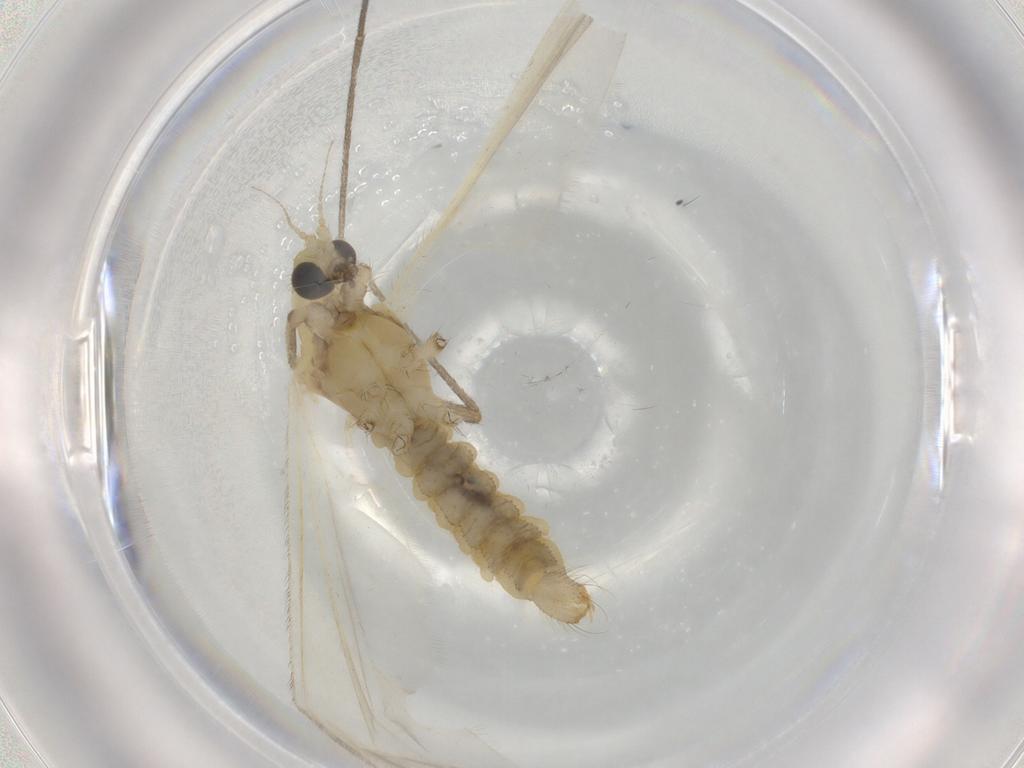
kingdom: Animalia
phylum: Arthropoda
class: Insecta
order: Diptera
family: Limoniidae
